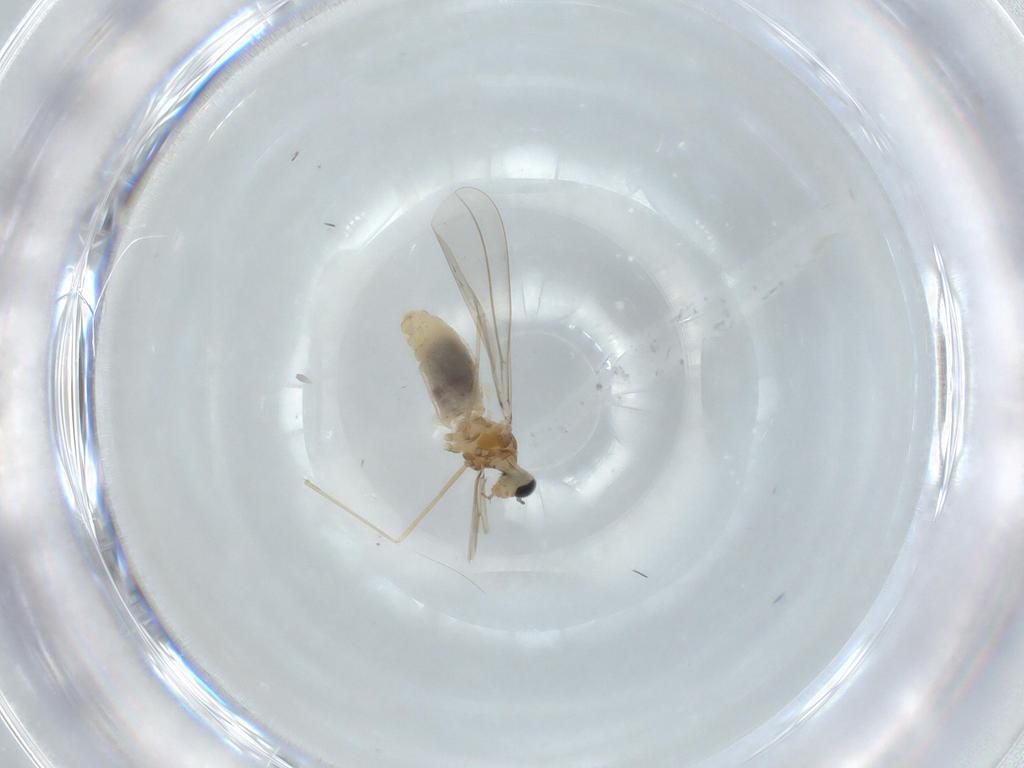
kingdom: Animalia
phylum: Arthropoda
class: Insecta
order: Diptera
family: Cecidomyiidae
